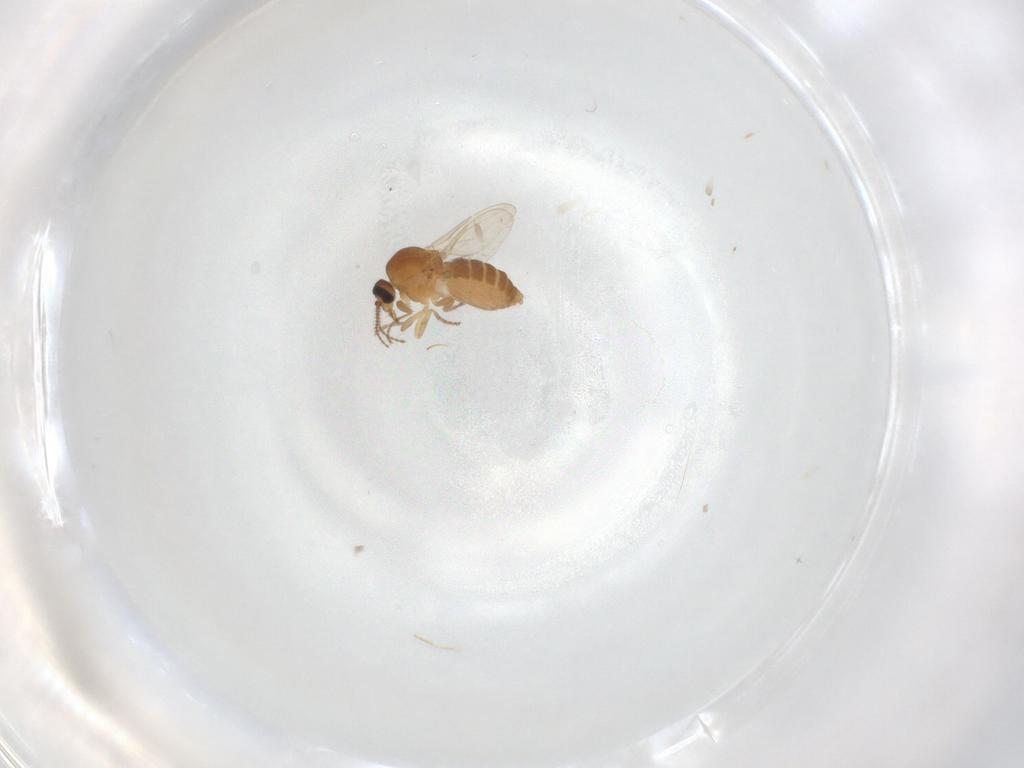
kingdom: Animalia
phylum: Arthropoda
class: Insecta
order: Diptera
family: Ceratopogonidae
